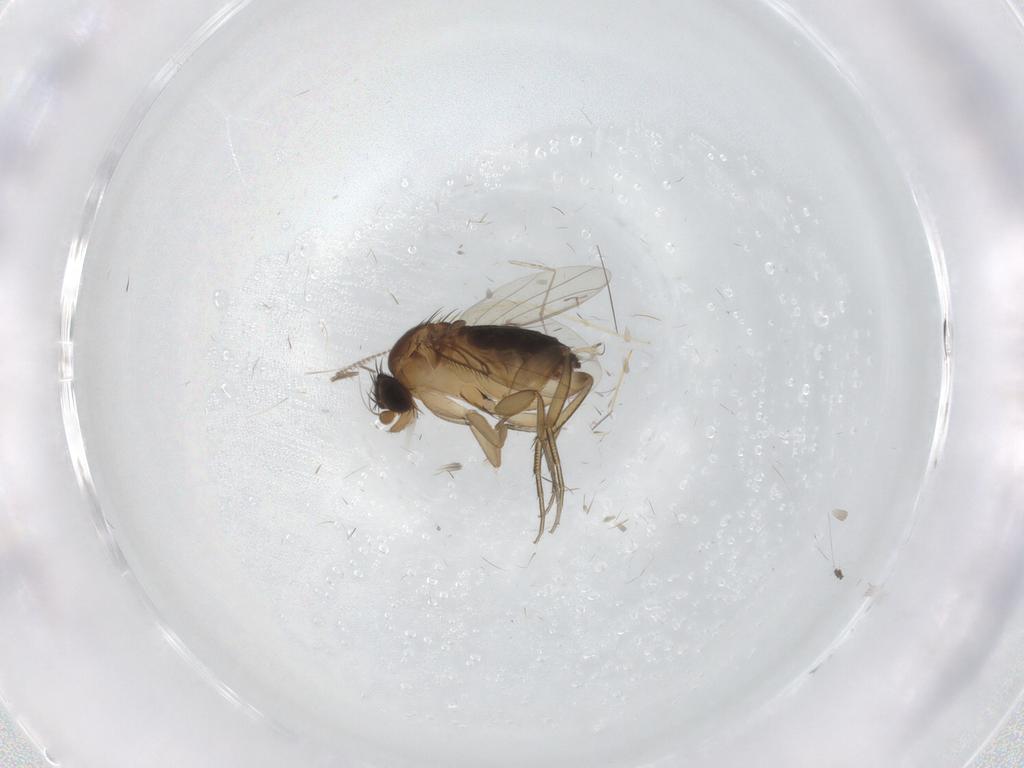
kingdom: Animalia
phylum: Arthropoda
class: Insecta
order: Diptera
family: Cecidomyiidae
